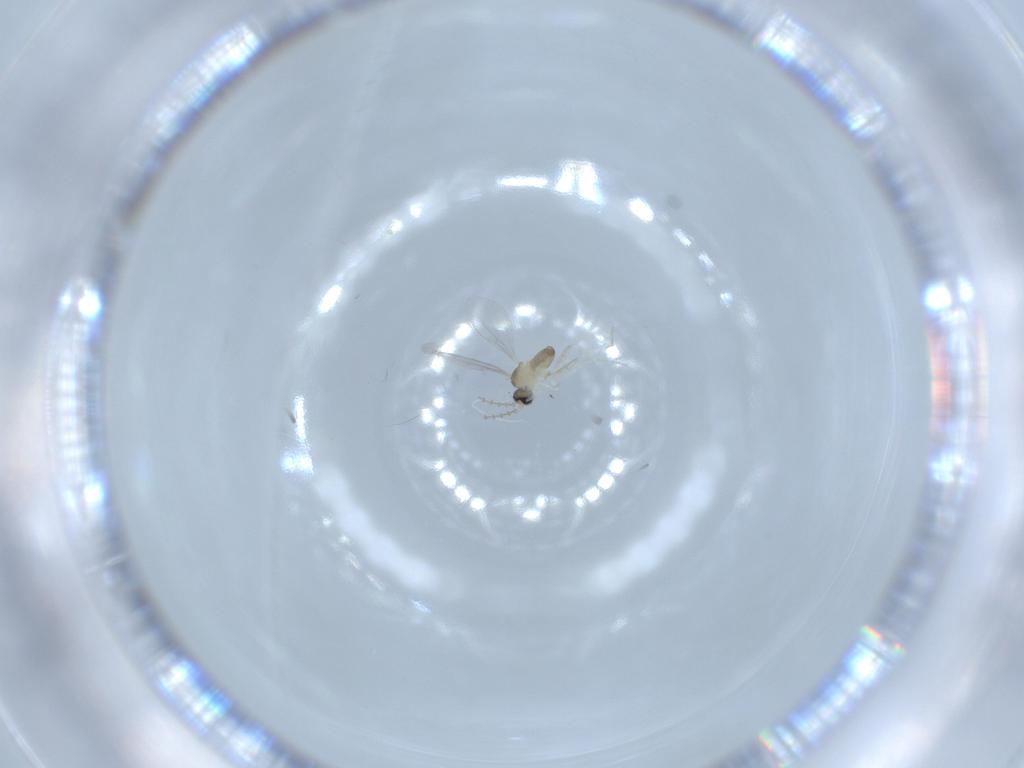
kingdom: Animalia
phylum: Arthropoda
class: Insecta
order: Diptera
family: Cecidomyiidae
